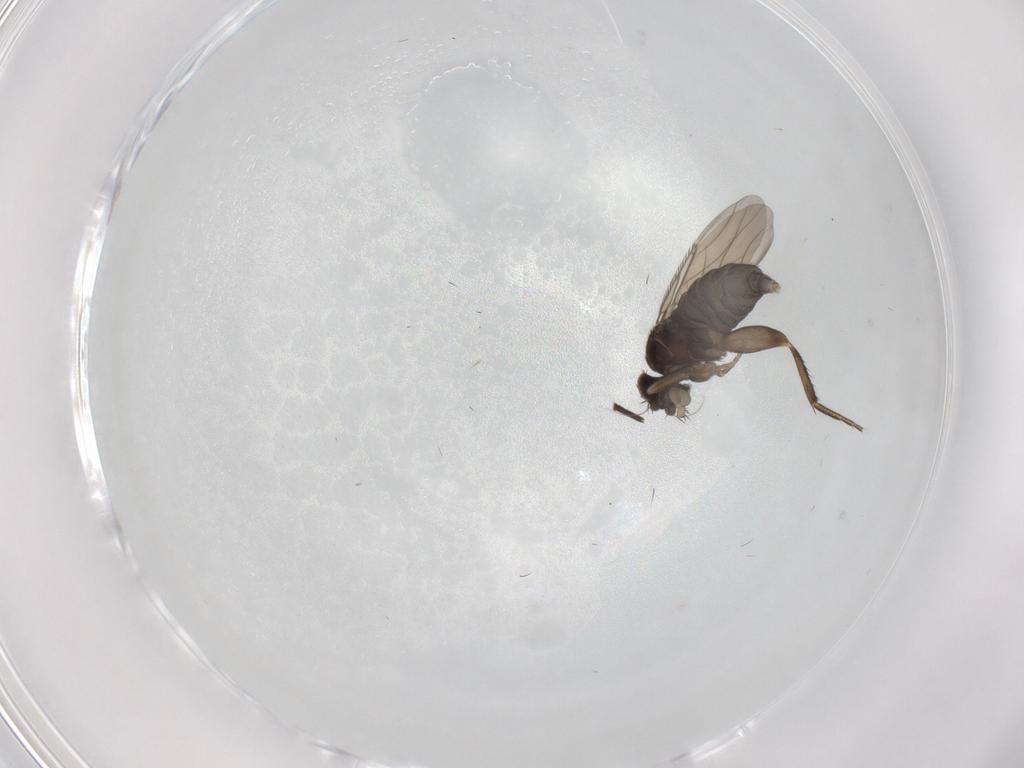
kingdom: Animalia
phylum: Arthropoda
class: Insecta
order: Diptera
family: Phoridae
